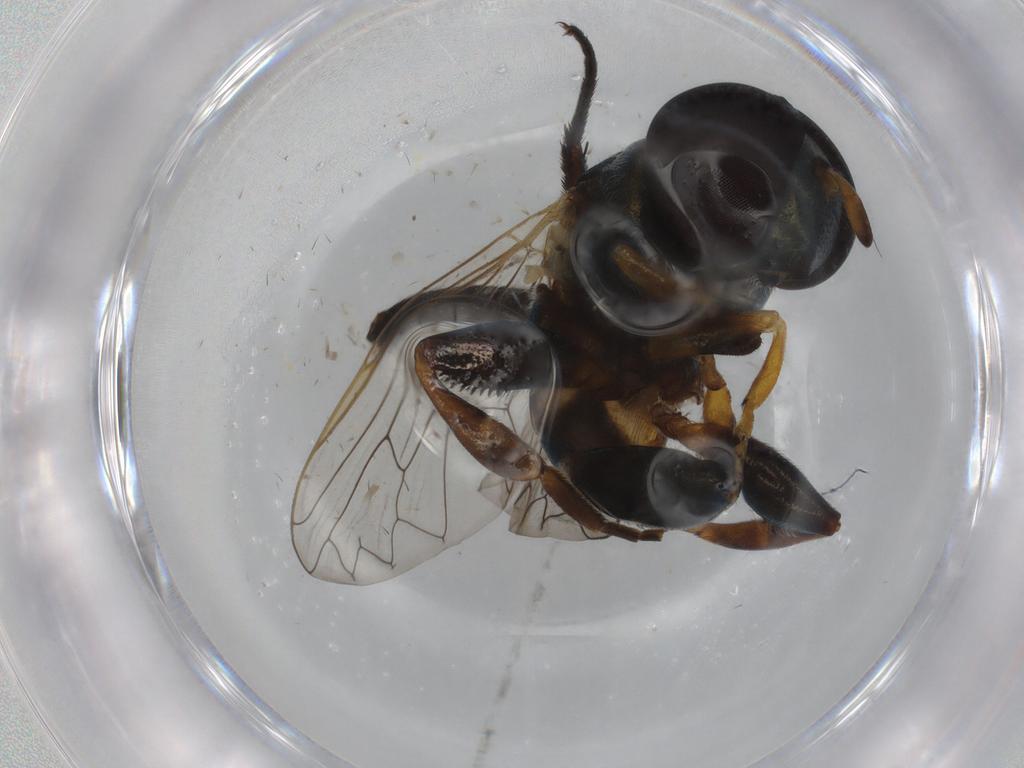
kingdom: Animalia
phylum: Arthropoda
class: Insecta
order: Diptera
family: Syrphidae
